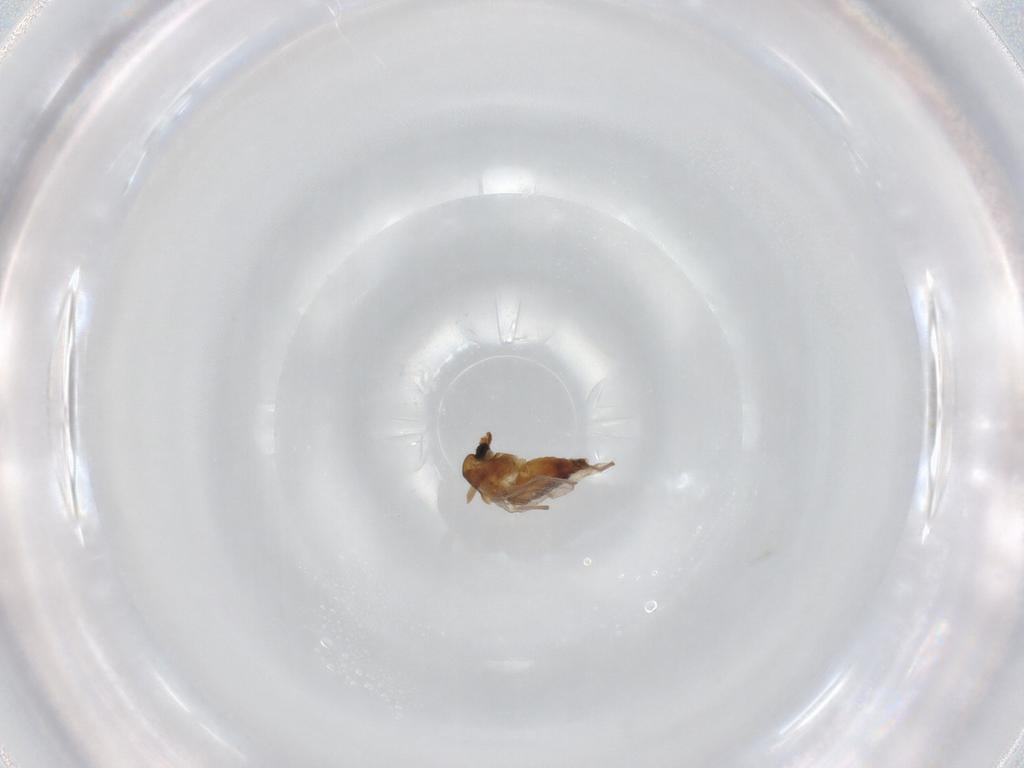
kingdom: Animalia
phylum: Arthropoda
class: Insecta
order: Diptera
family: Chironomidae
